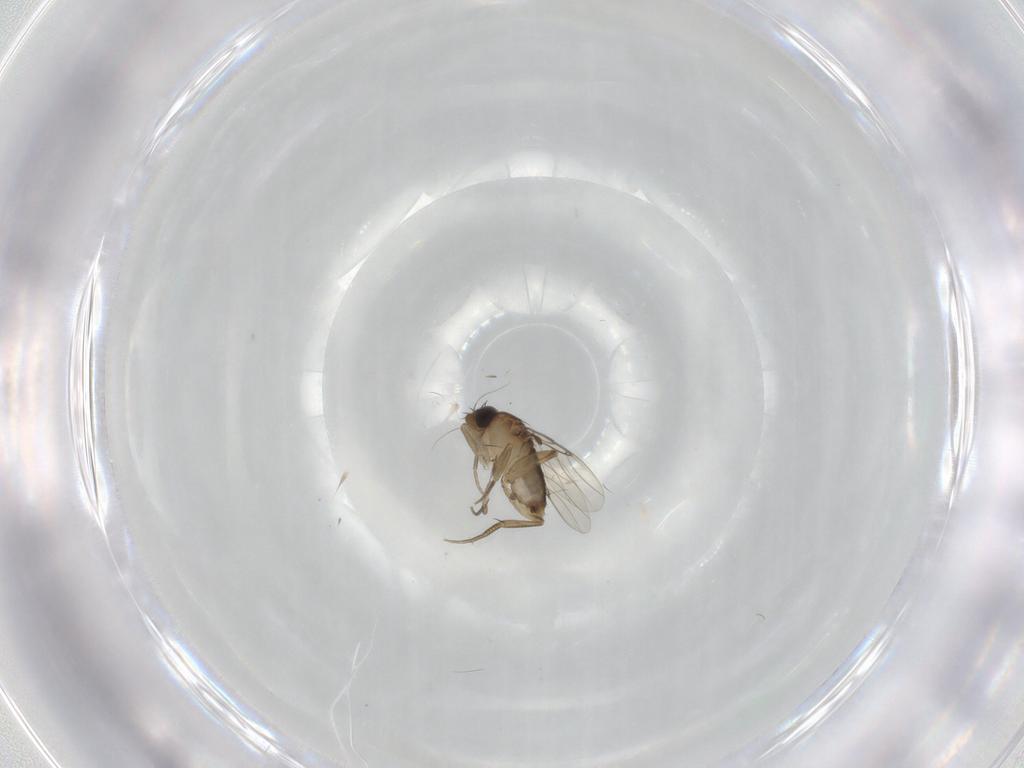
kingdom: Animalia
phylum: Arthropoda
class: Insecta
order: Diptera
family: Phoridae
